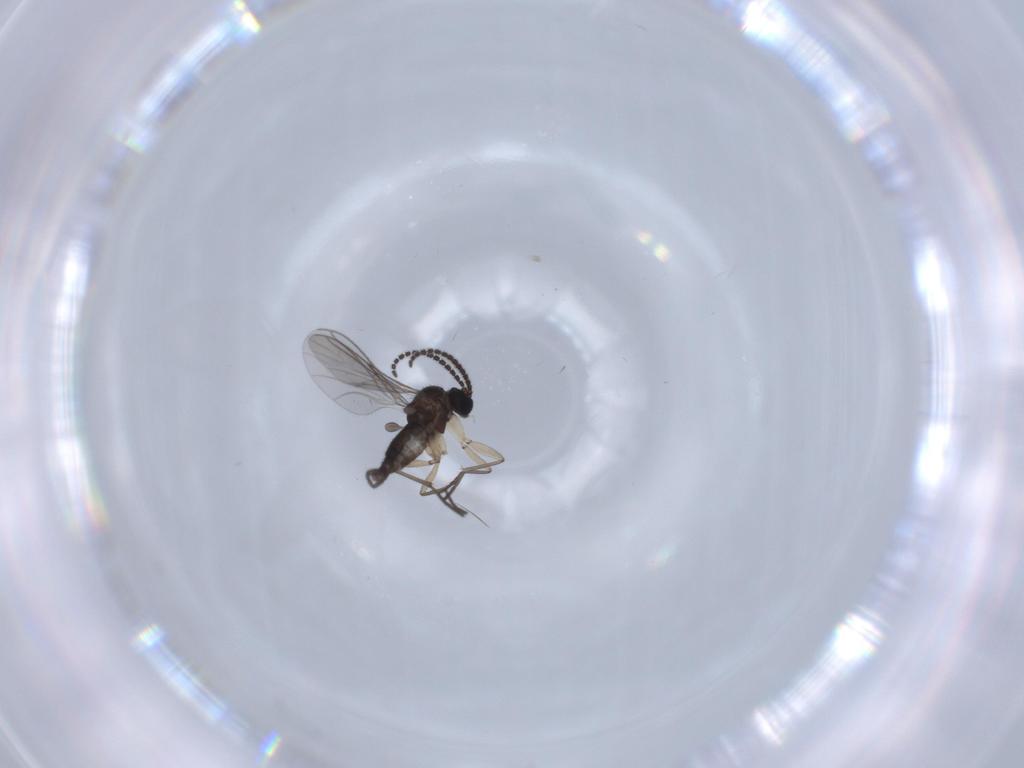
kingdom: Animalia
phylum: Arthropoda
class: Insecta
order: Diptera
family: Sciaridae
